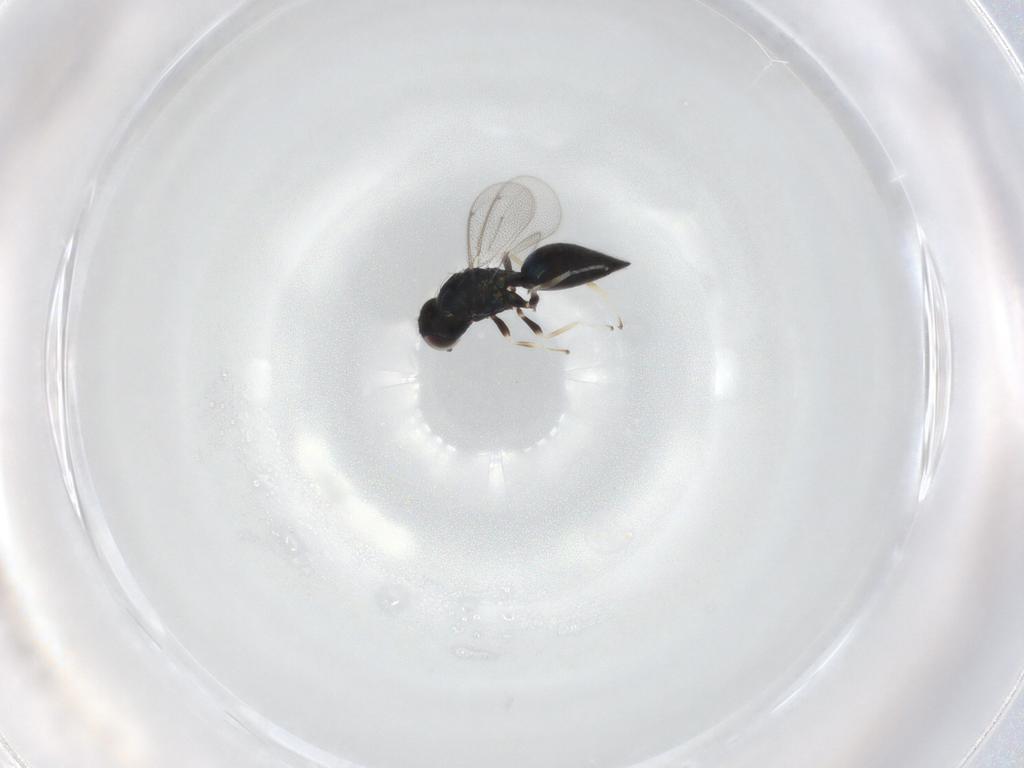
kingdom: Animalia
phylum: Arthropoda
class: Insecta
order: Hymenoptera
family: Eulophidae
